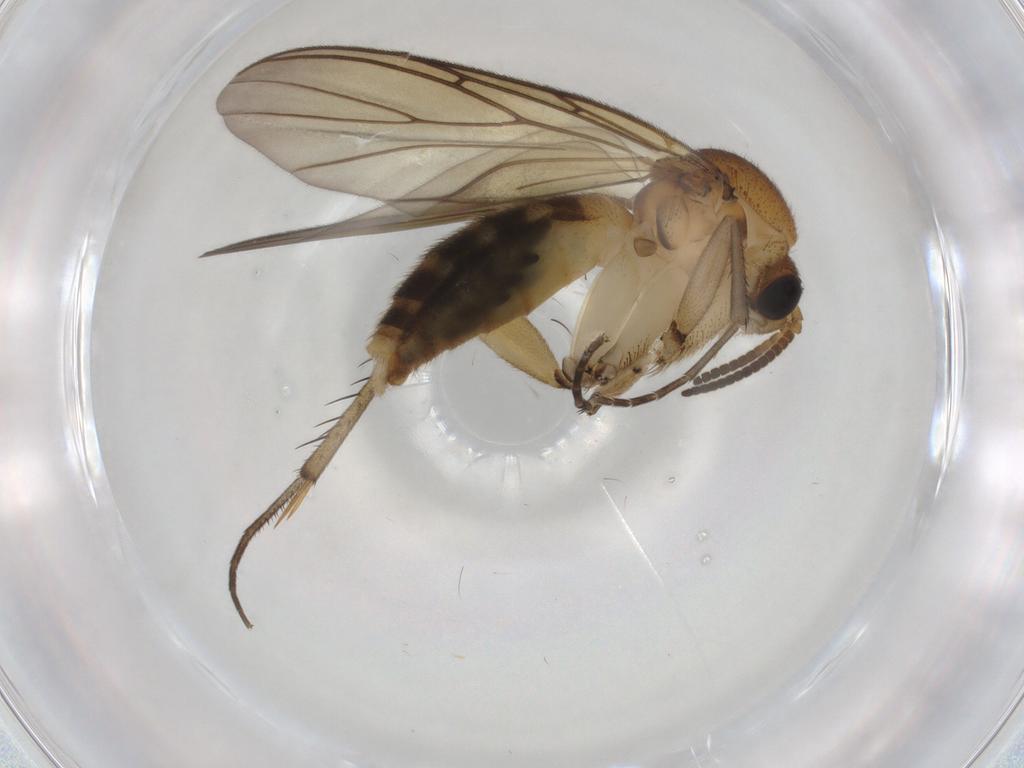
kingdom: Animalia
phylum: Arthropoda
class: Insecta
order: Diptera
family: Mycetophilidae
